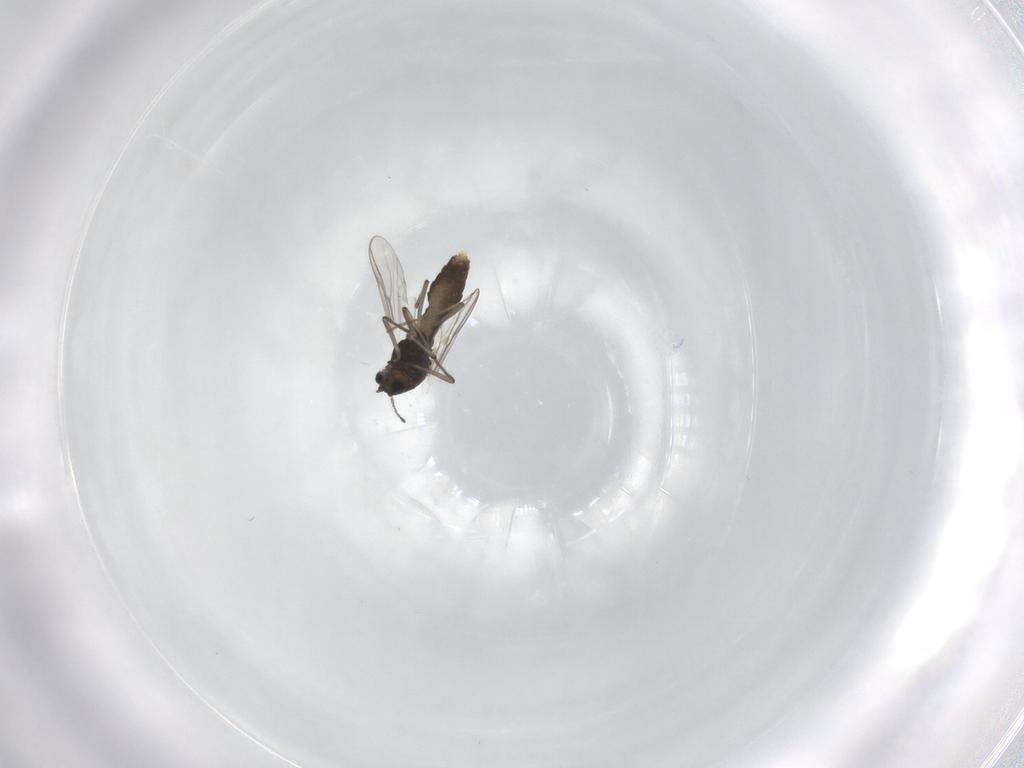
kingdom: Animalia
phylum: Arthropoda
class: Insecta
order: Diptera
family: Chironomidae
